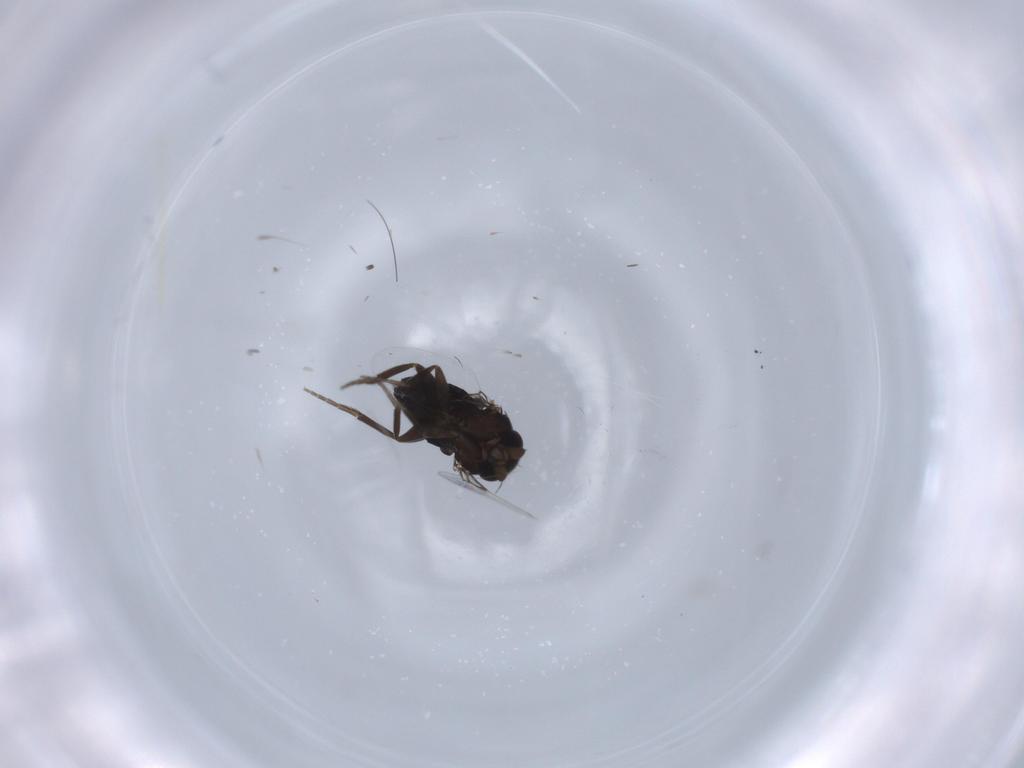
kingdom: Animalia
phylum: Arthropoda
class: Insecta
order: Diptera
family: Phoridae
